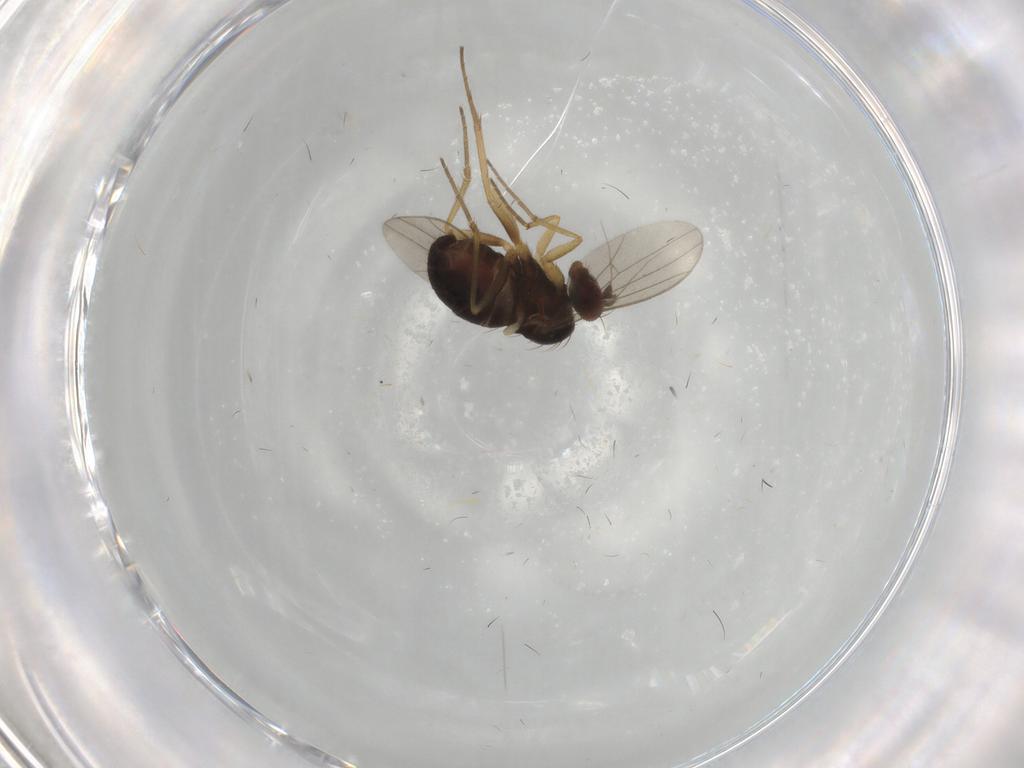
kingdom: Animalia
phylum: Arthropoda
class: Insecta
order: Diptera
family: Dolichopodidae
